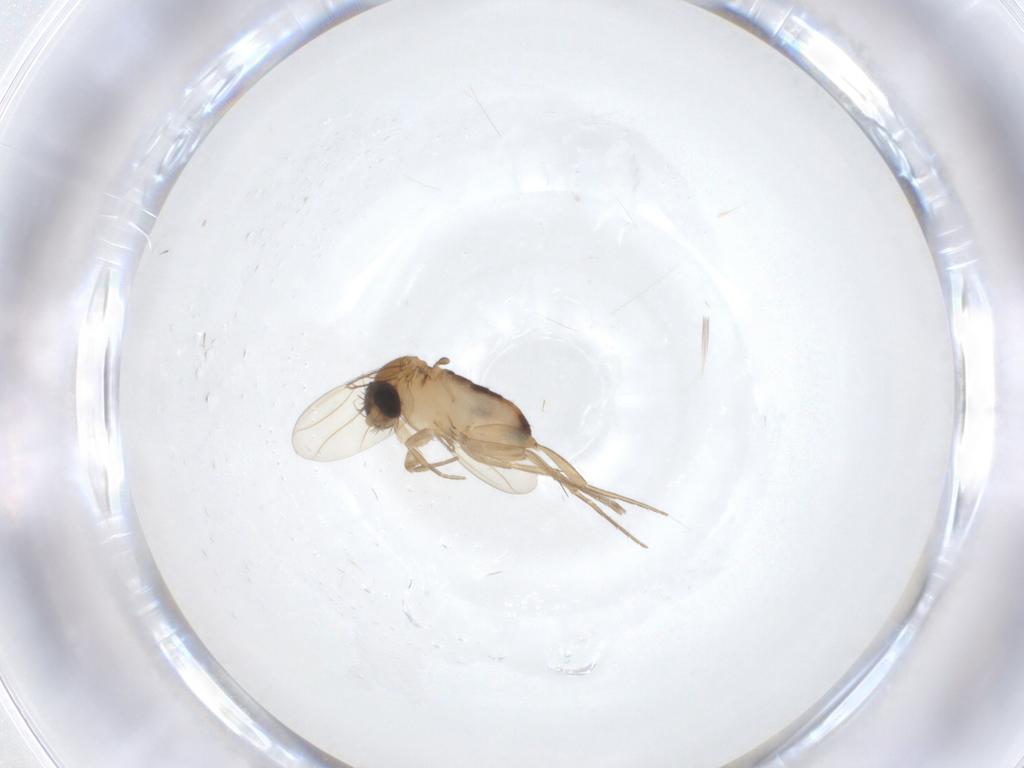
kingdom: Animalia
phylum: Arthropoda
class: Insecta
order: Diptera
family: Phoridae
